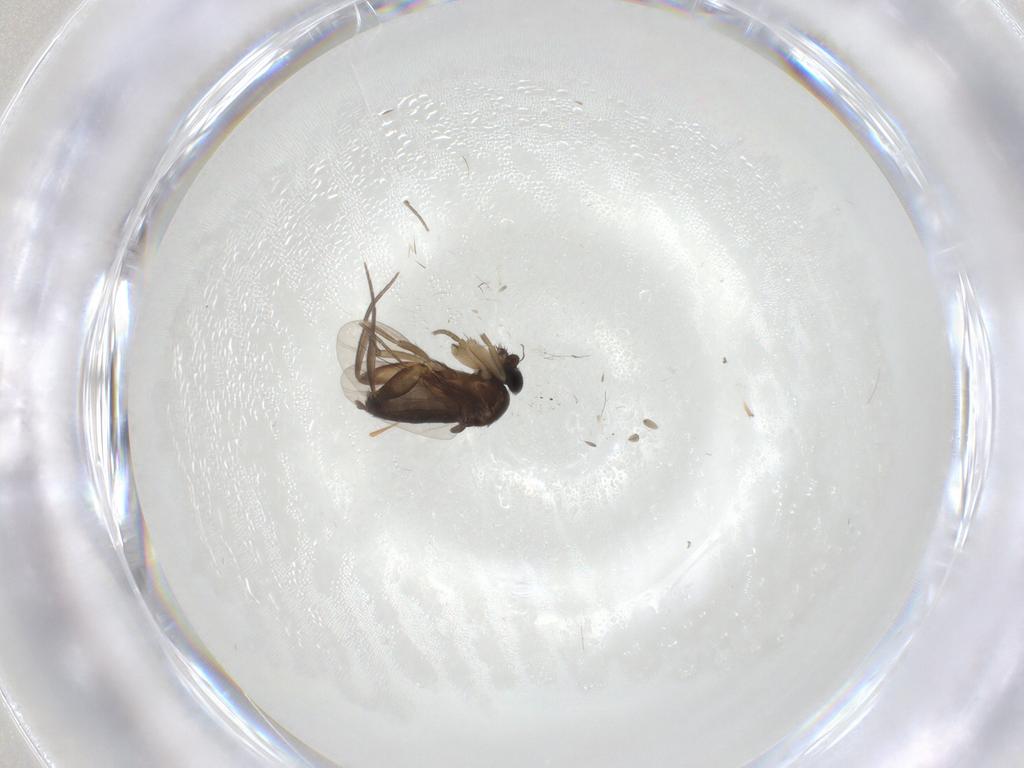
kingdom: Animalia
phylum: Arthropoda
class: Insecta
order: Diptera
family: Phoridae
